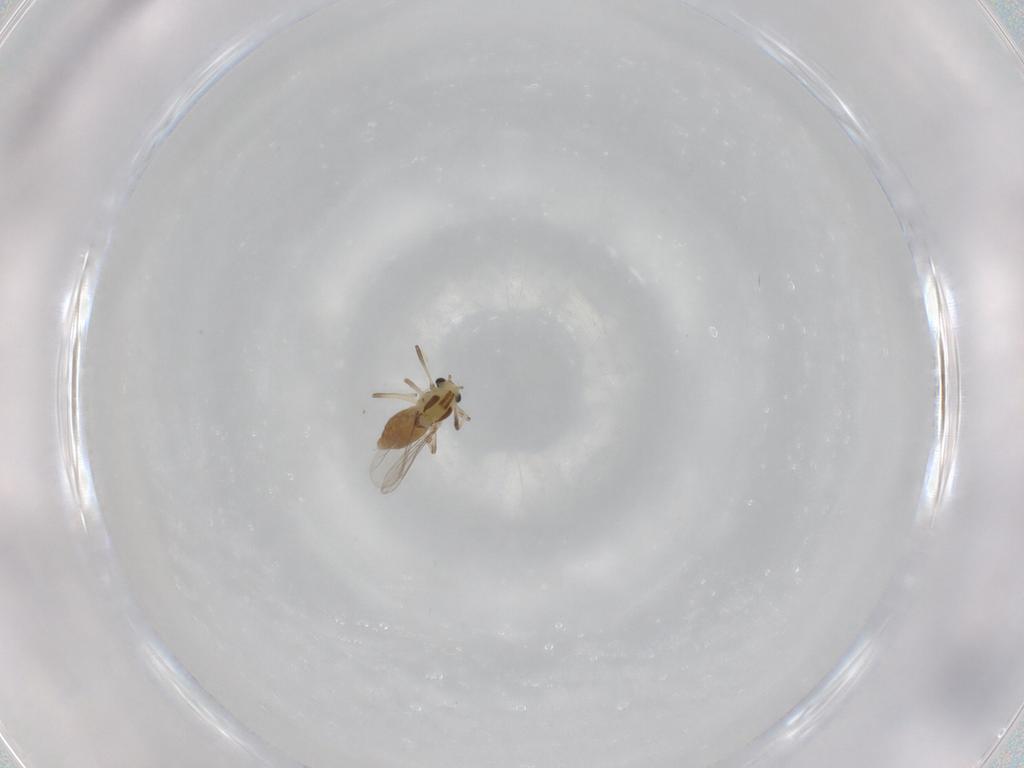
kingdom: Animalia
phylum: Arthropoda
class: Insecta
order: Diptera
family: Chironomidae
